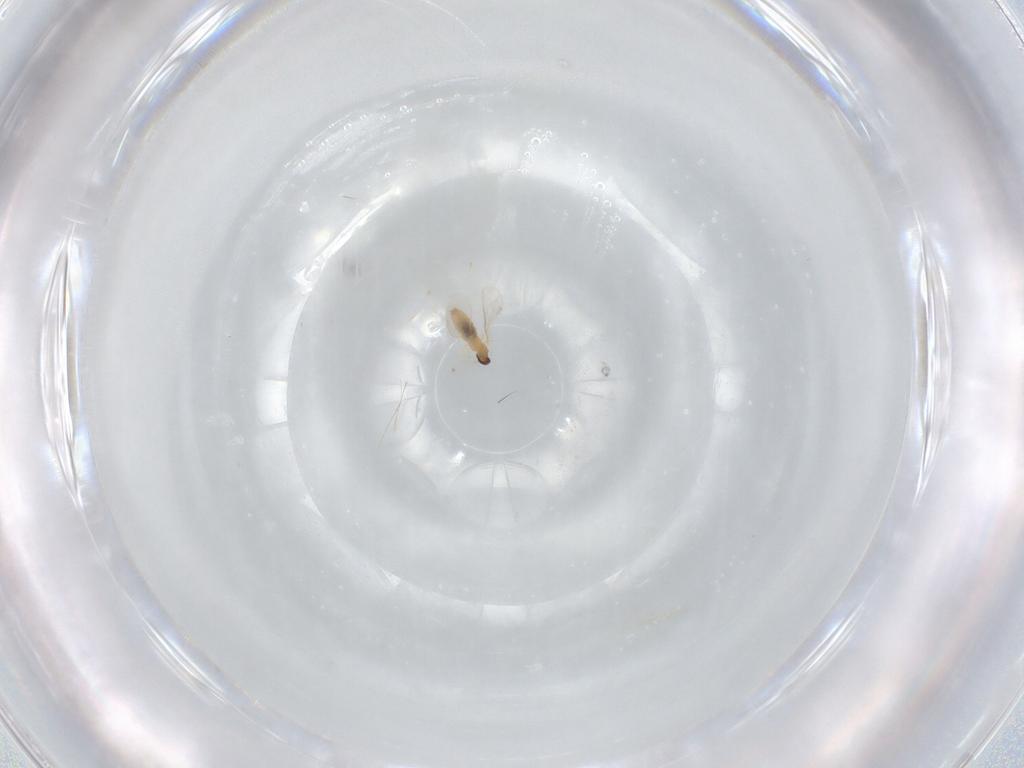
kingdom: Animalia
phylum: Arthropoda
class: Insecta
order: Diptera
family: Cecidomyiidae
